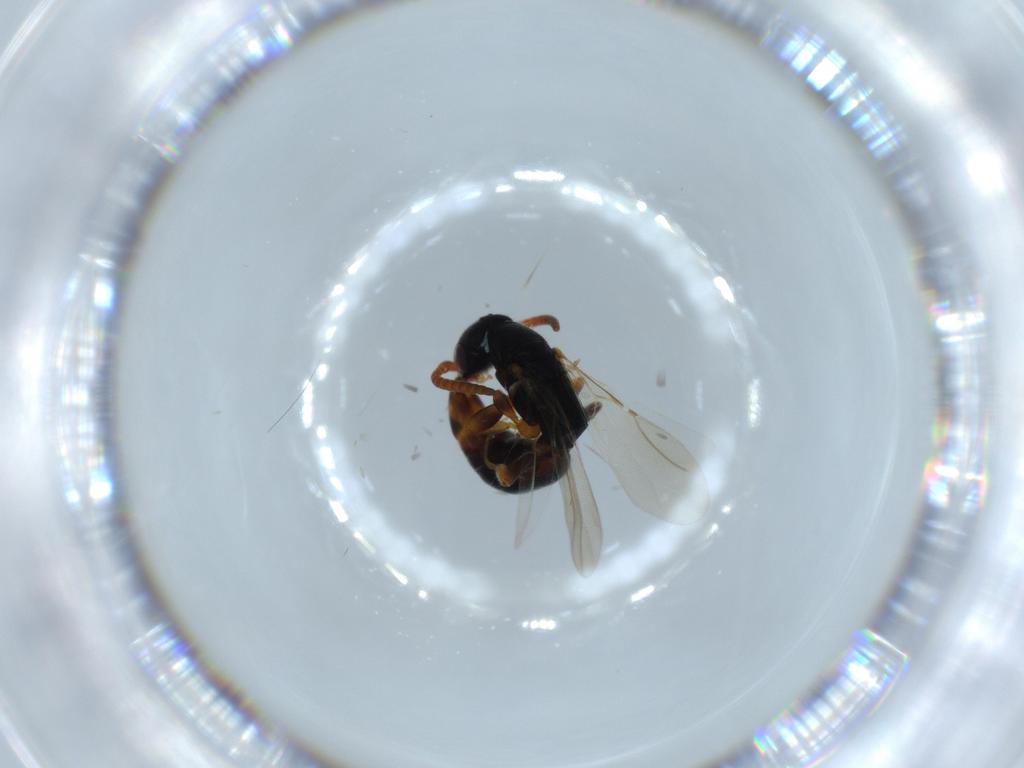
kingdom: Animalia
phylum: Arthropoda
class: Insecta
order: Hymenoptera
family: Bethylidae
